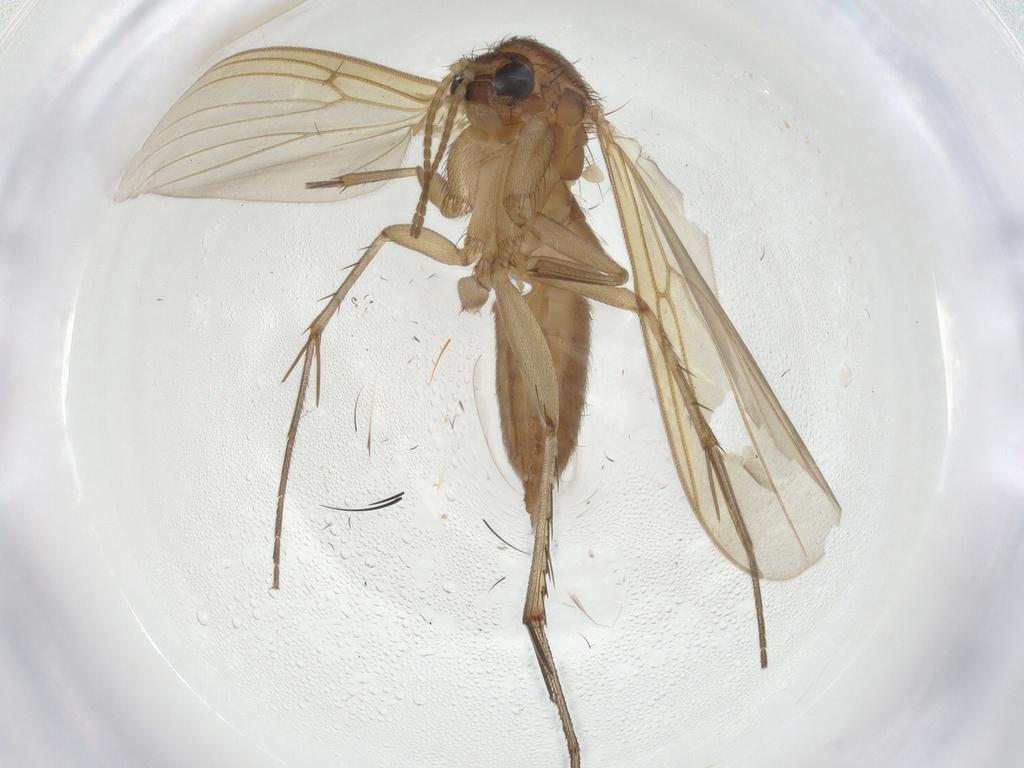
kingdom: Animalia
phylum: Arthropoda
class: Insecta
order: Diptera
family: Mycetophilidae
